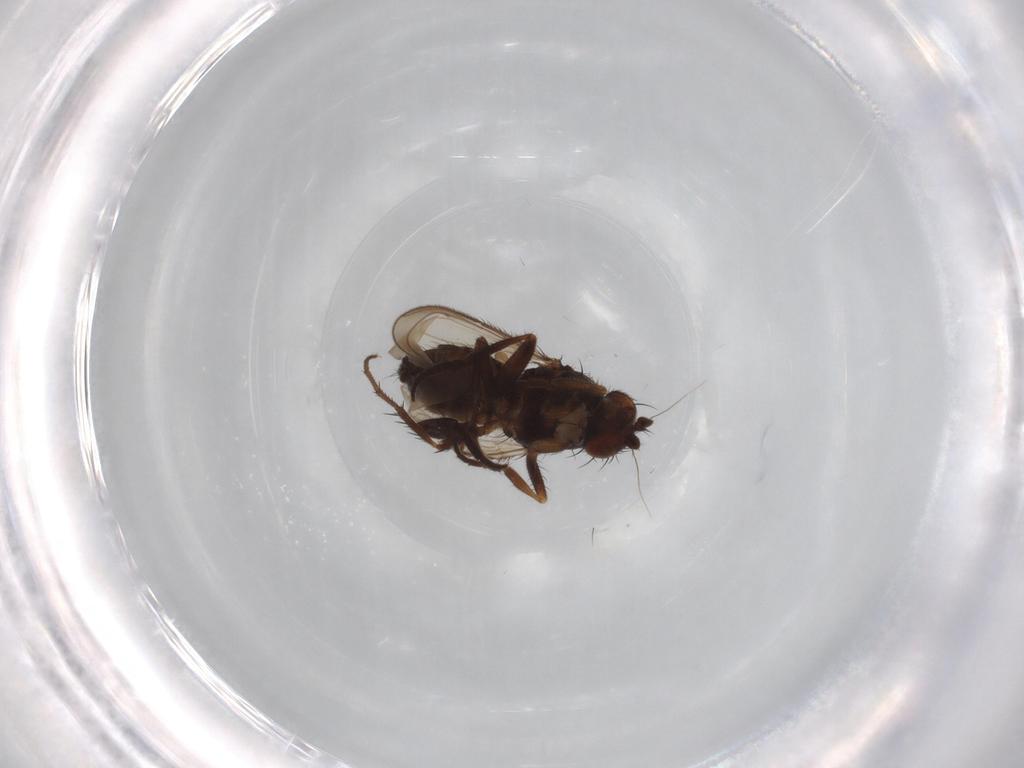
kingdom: Animalia
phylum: Arthropoda
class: Insecta
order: Diptera
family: Sphaeroceridae
